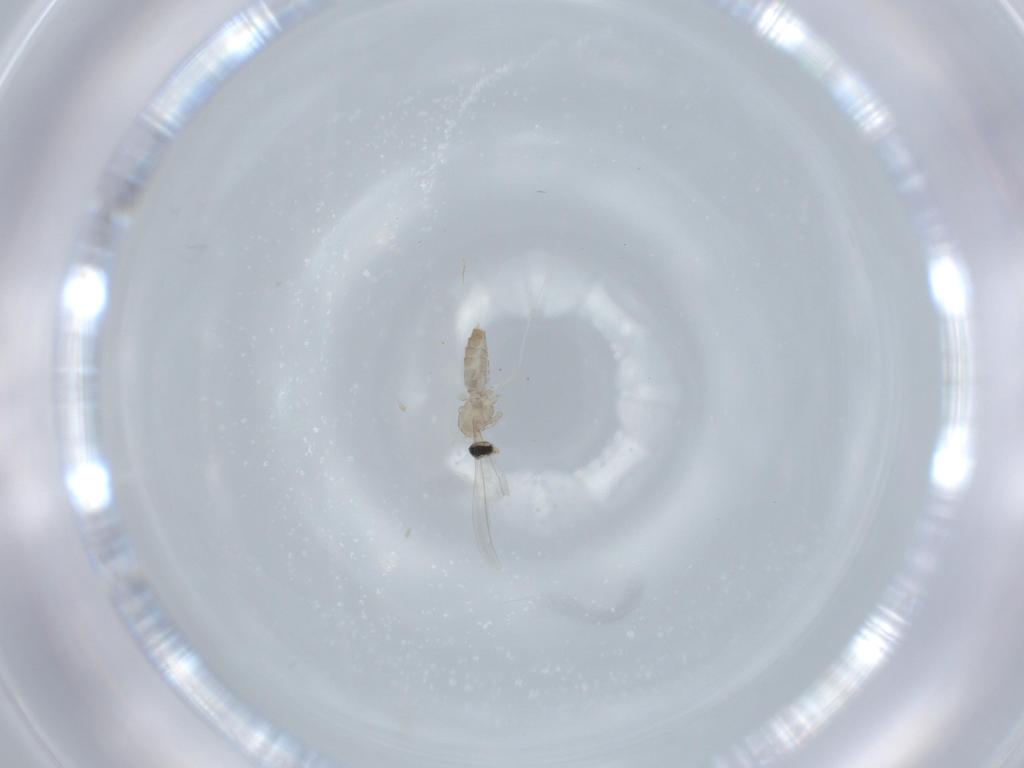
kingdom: Animalia
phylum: Arthropoda
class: Insecta
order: Diptera
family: Cecidomyiidae
